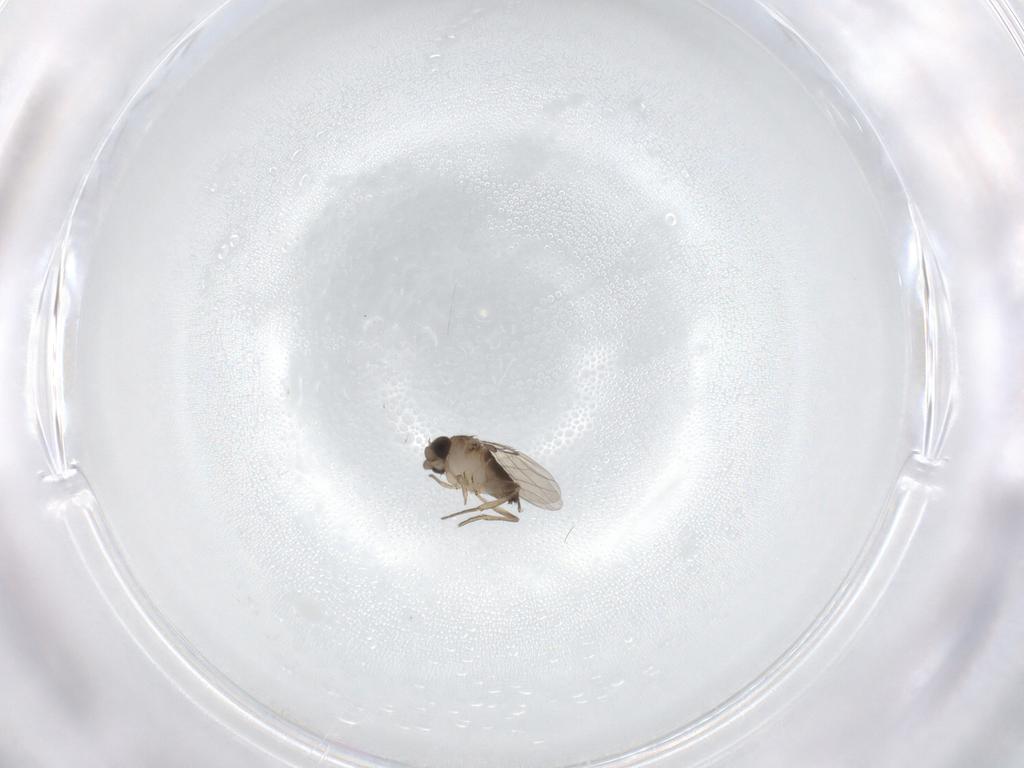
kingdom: Animalia
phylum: Arthropoda
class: Insecta
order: Diptera
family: Phoridae
